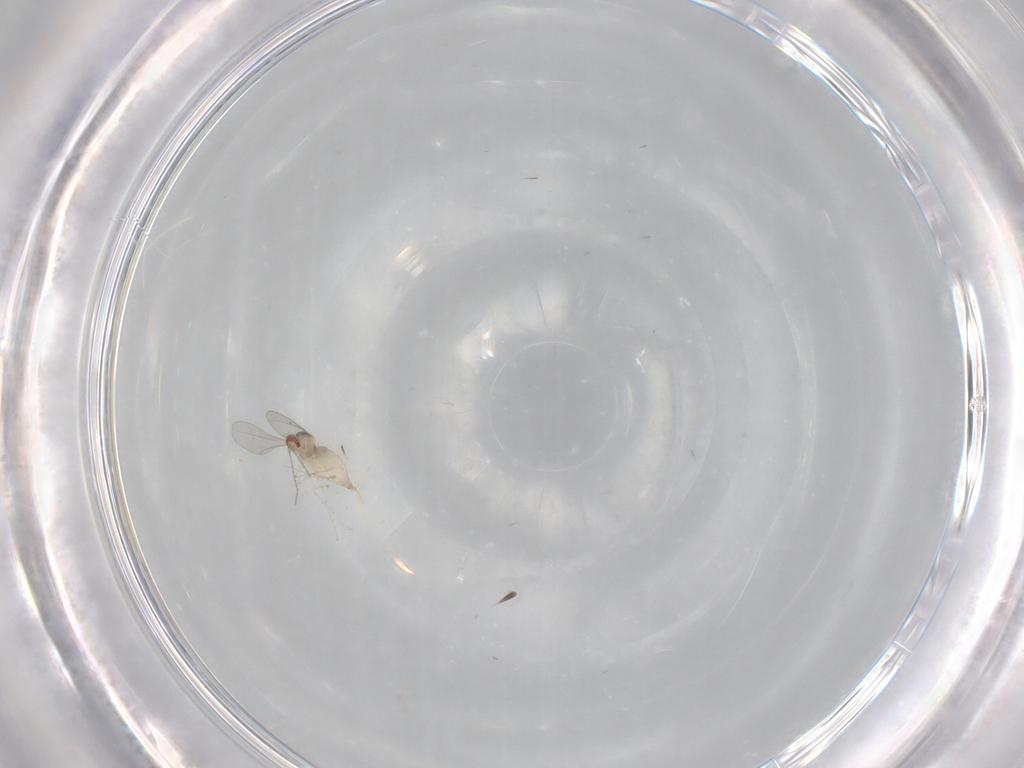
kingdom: Animalia
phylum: Arthropoda
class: Insecta
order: Diptera
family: Cecidomyiidae
